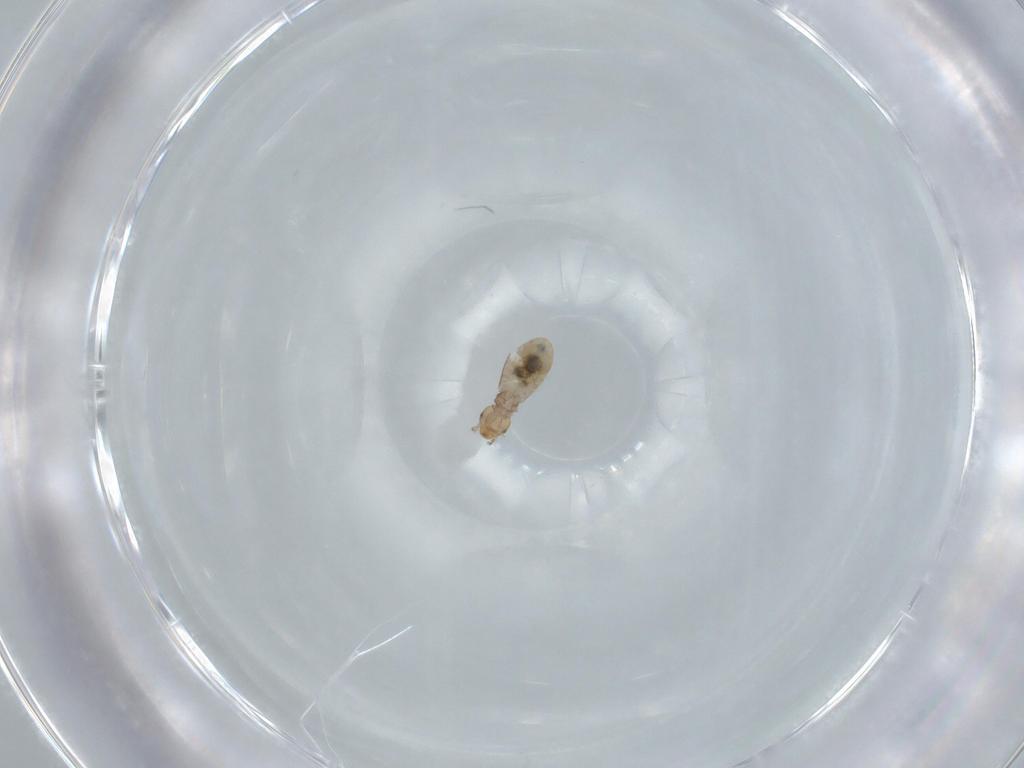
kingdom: Animalia
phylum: Arthropoda
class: Insecta
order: Psocodea
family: Liposcelididae
